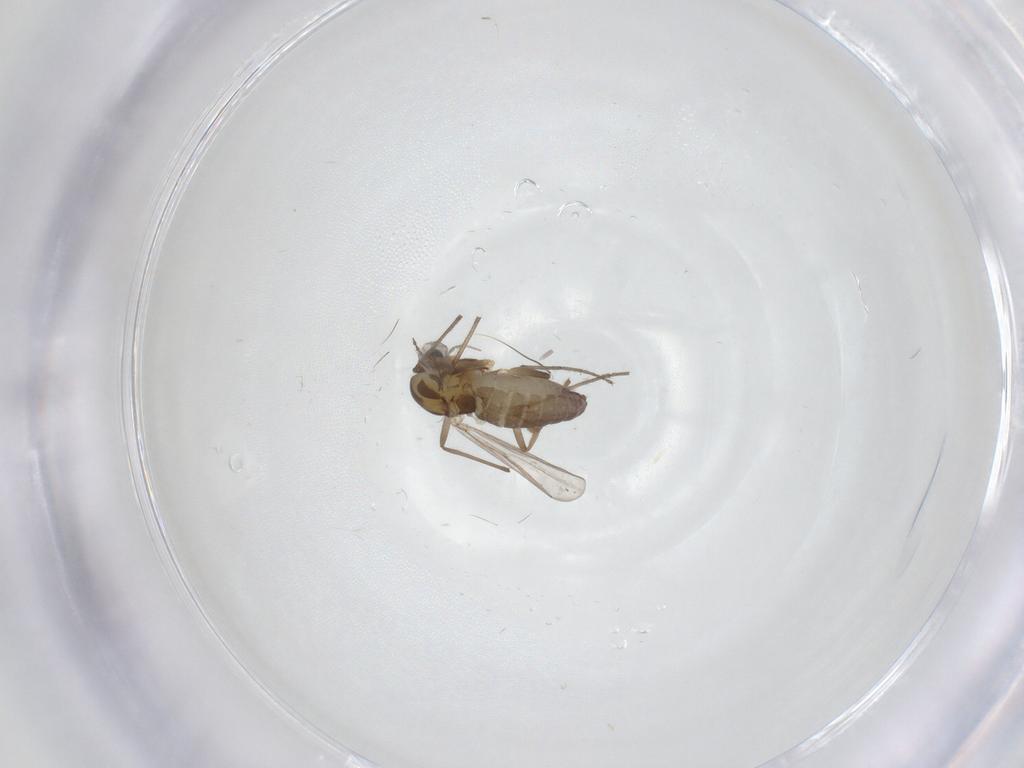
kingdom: Animalia
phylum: Arthropoda
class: Insecta
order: Diptera
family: Chironomidae
